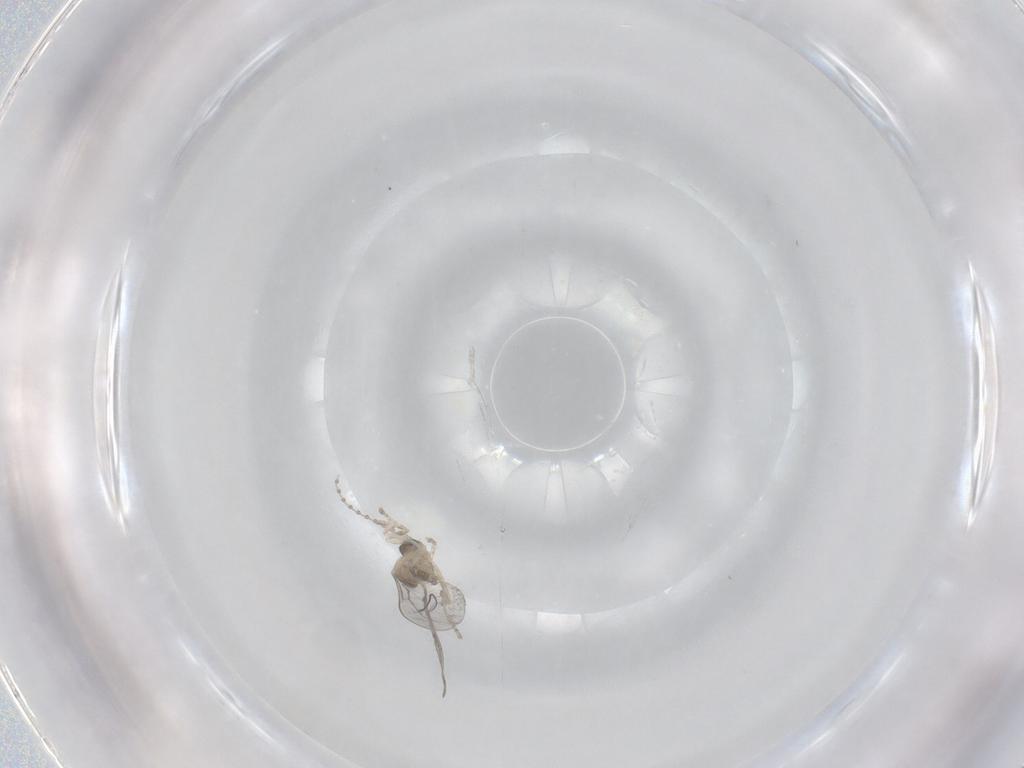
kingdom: Animalia
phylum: Arthropoda
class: Insecta
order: Diptera
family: Cecidomyiidae
